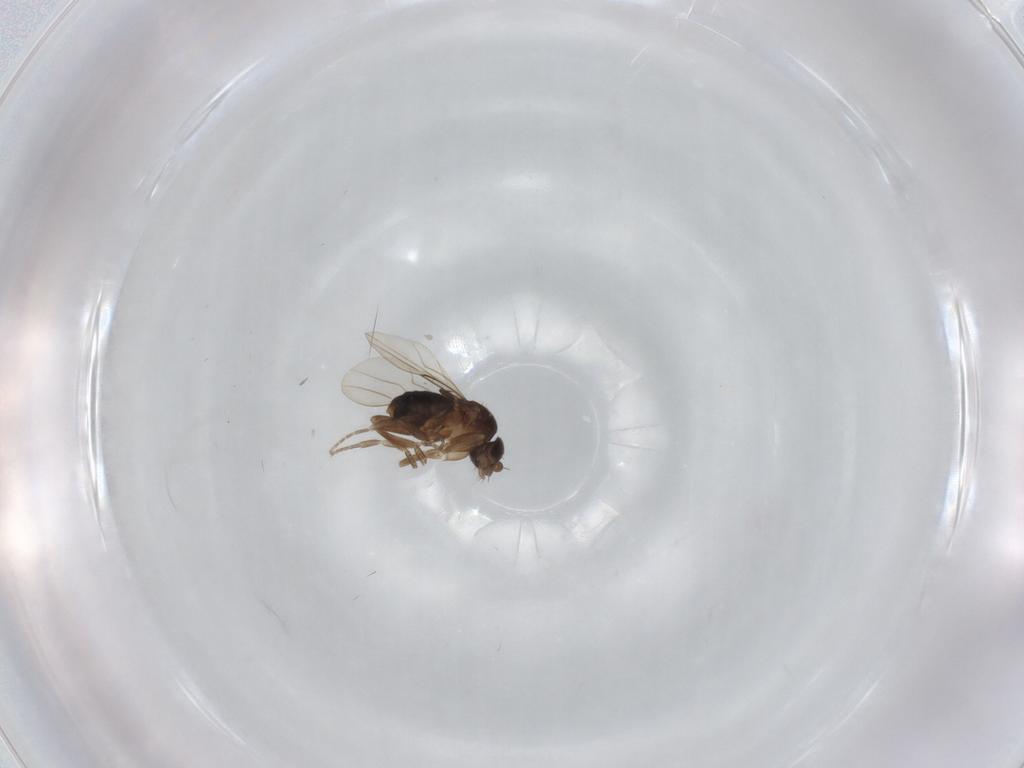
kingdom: Animalia
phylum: Arthropoda
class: Insecta
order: Diptera
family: Phoridae
